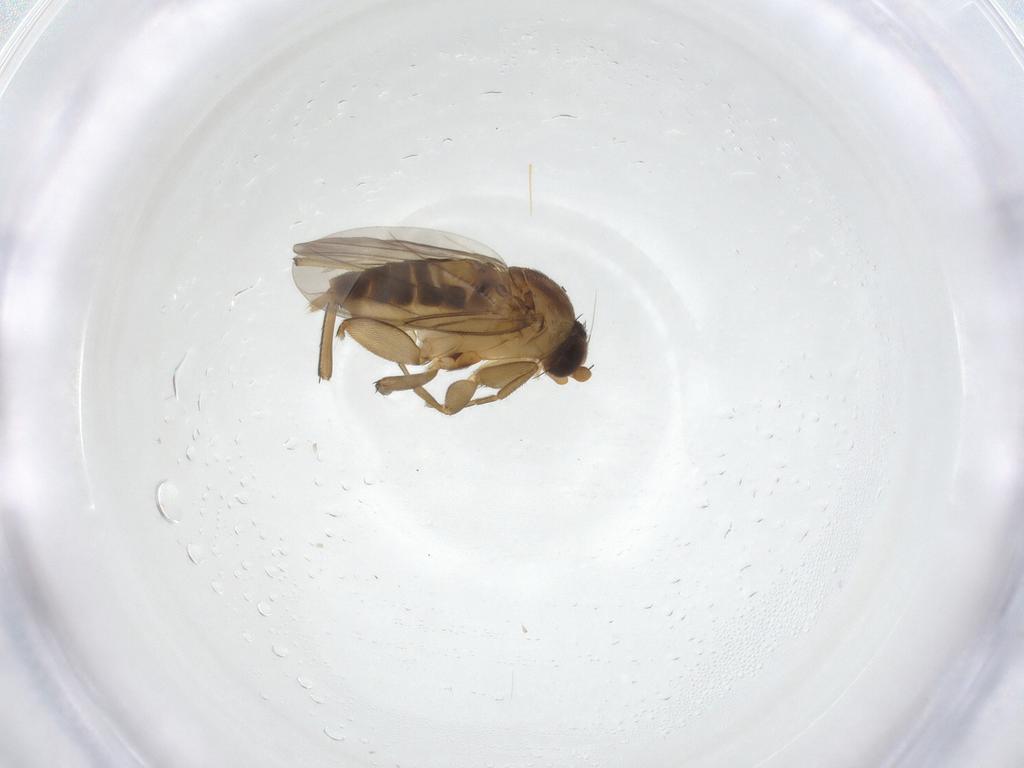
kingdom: Animalia
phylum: Arthropoda
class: Insecta
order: Diptera
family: Phoridae
